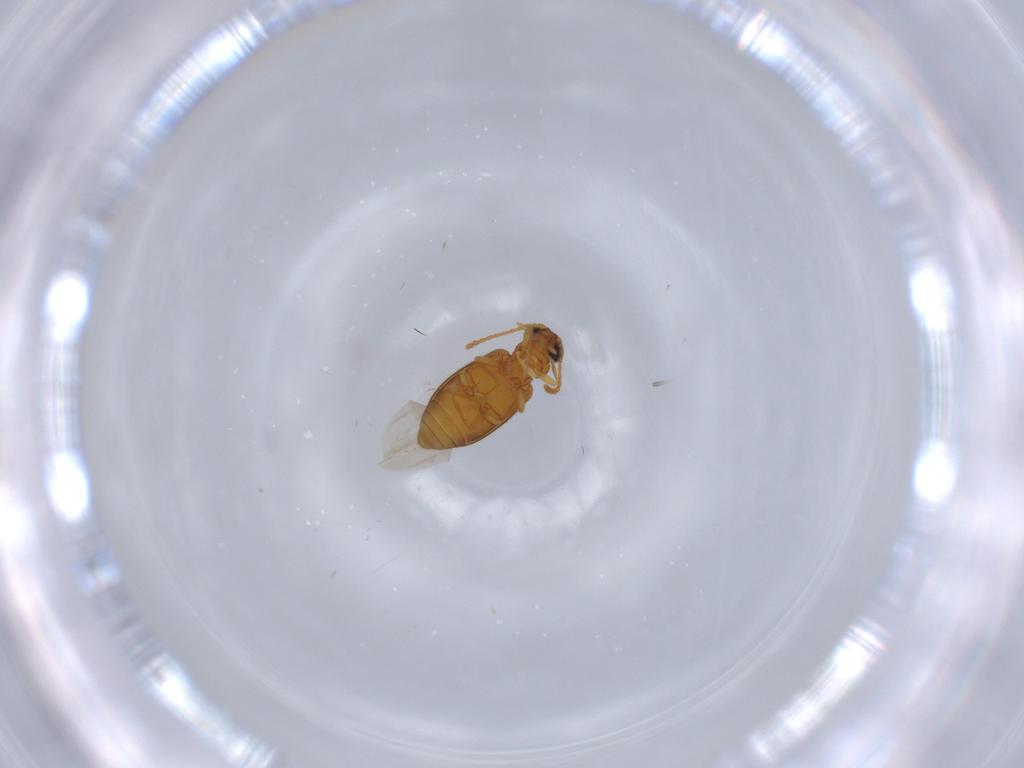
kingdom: Animalia
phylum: Arthropoda
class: Insecta
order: Coleoptera
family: Aderidae
